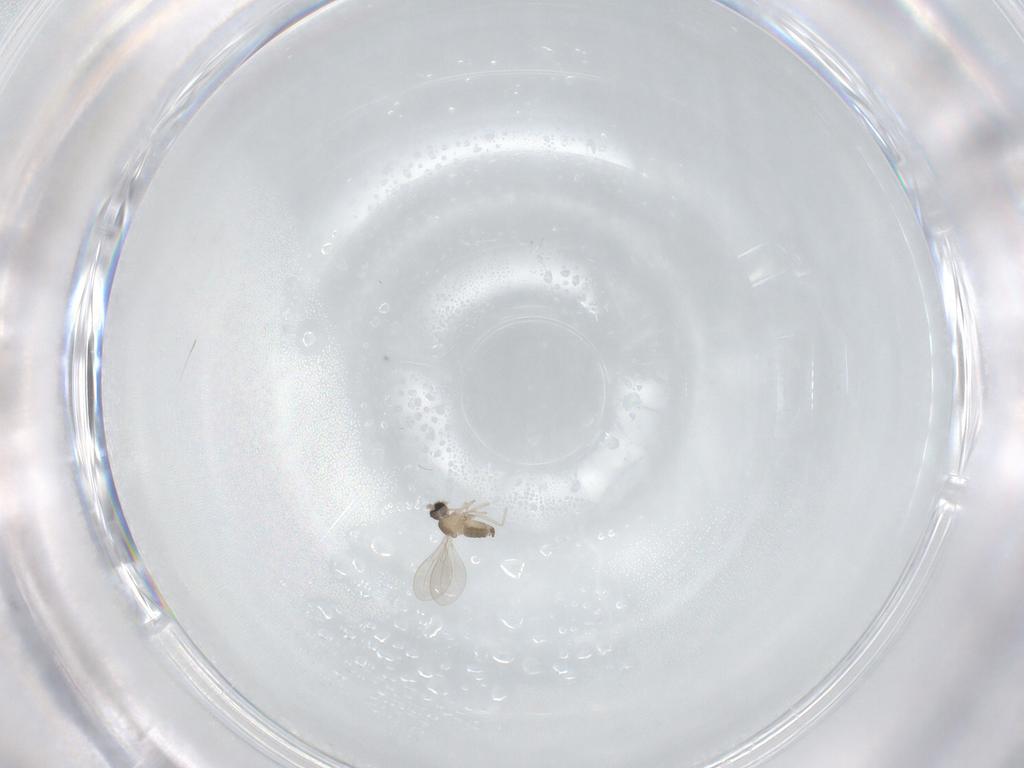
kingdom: Animalia
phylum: Arthropoda
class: Insecta
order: Diptera
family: Cecidomyiidae
